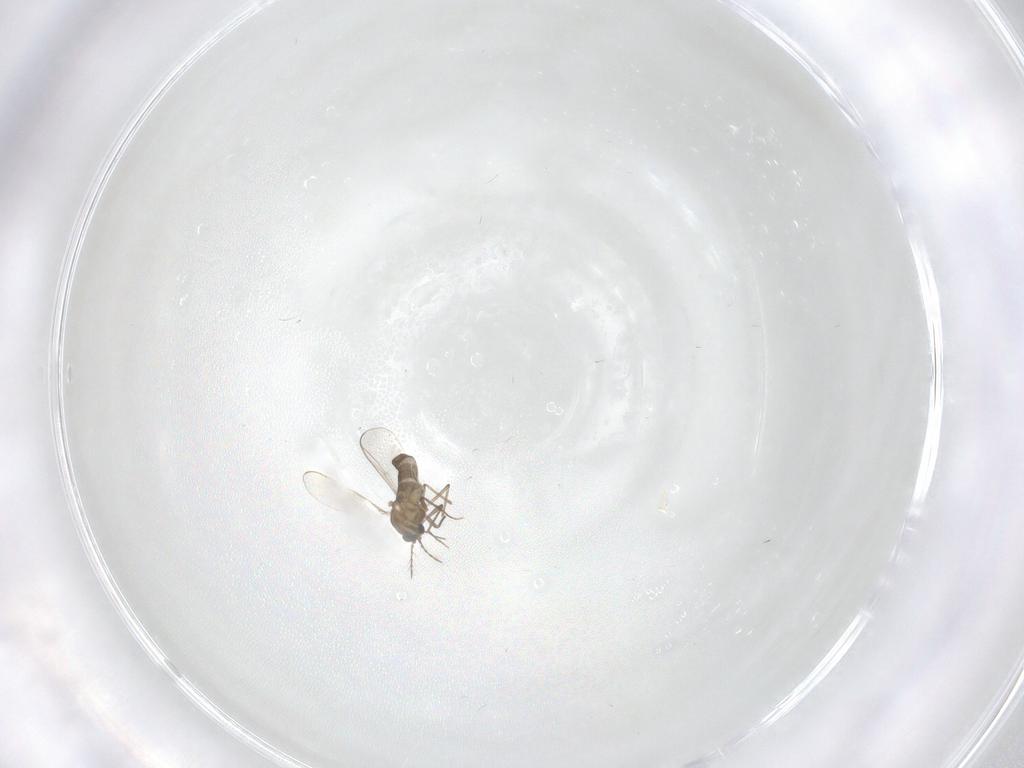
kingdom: Animalia
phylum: Arthropoda
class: Insecta
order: Diptera
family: Chironomidae
